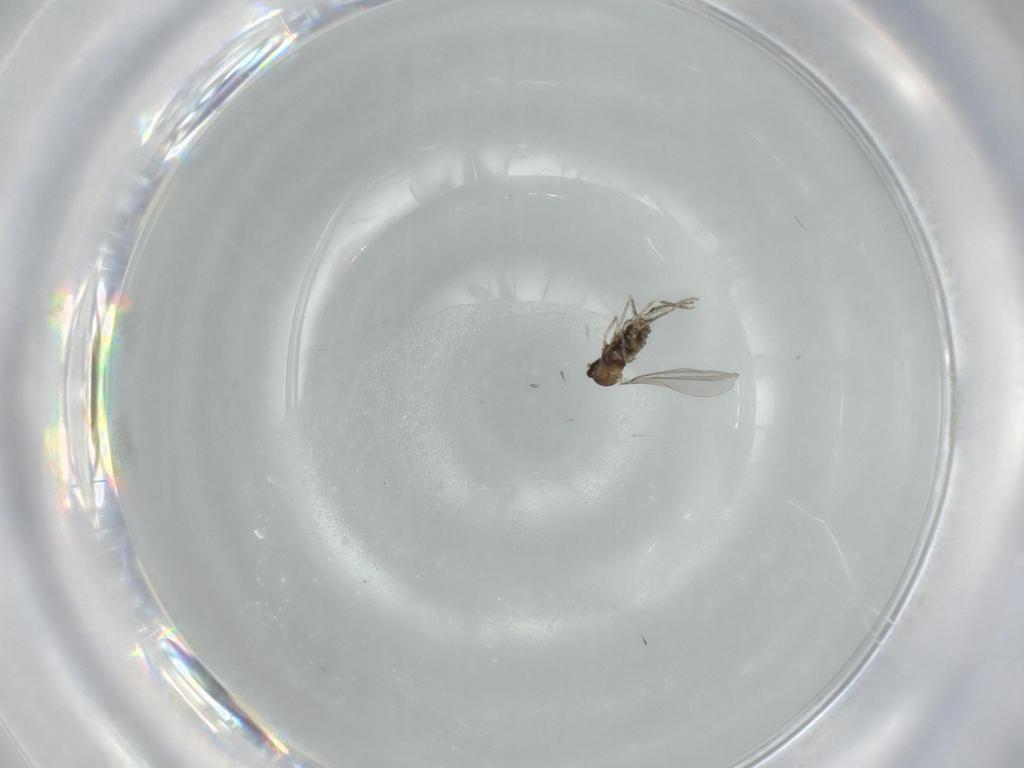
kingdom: Animalia
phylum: Arthropoda
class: Insecta
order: Diptera
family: Cecidomyiidae
